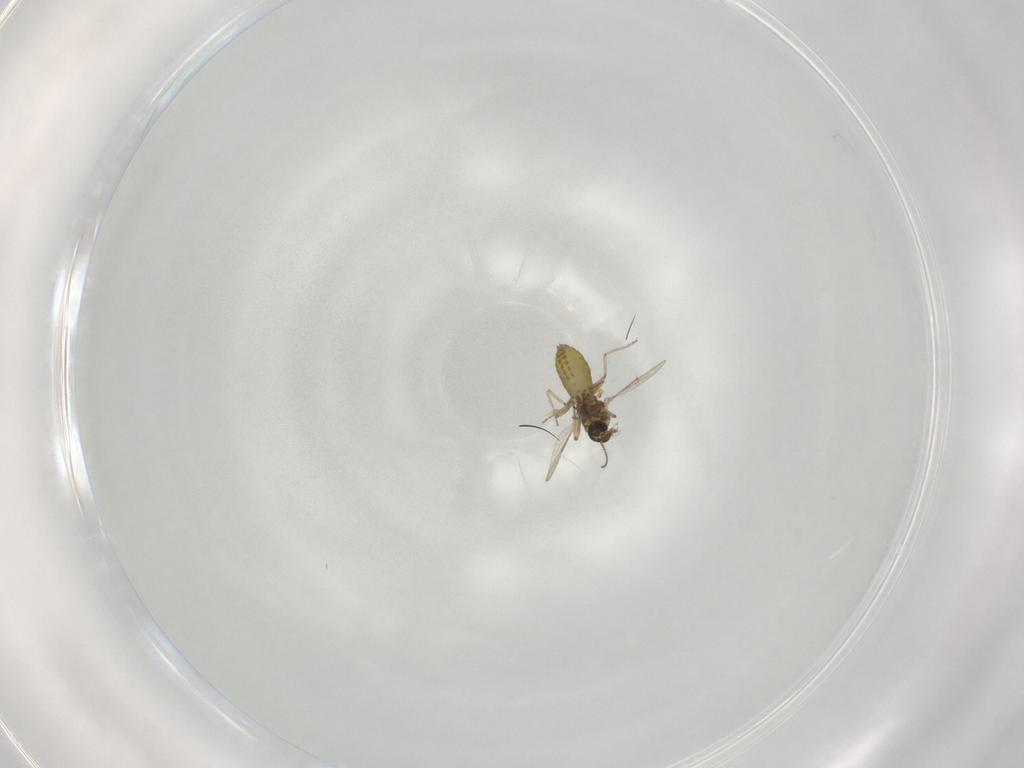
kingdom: Animalia
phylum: Arthropoda
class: Insecta
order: Diptera
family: Ceratopogonidae
